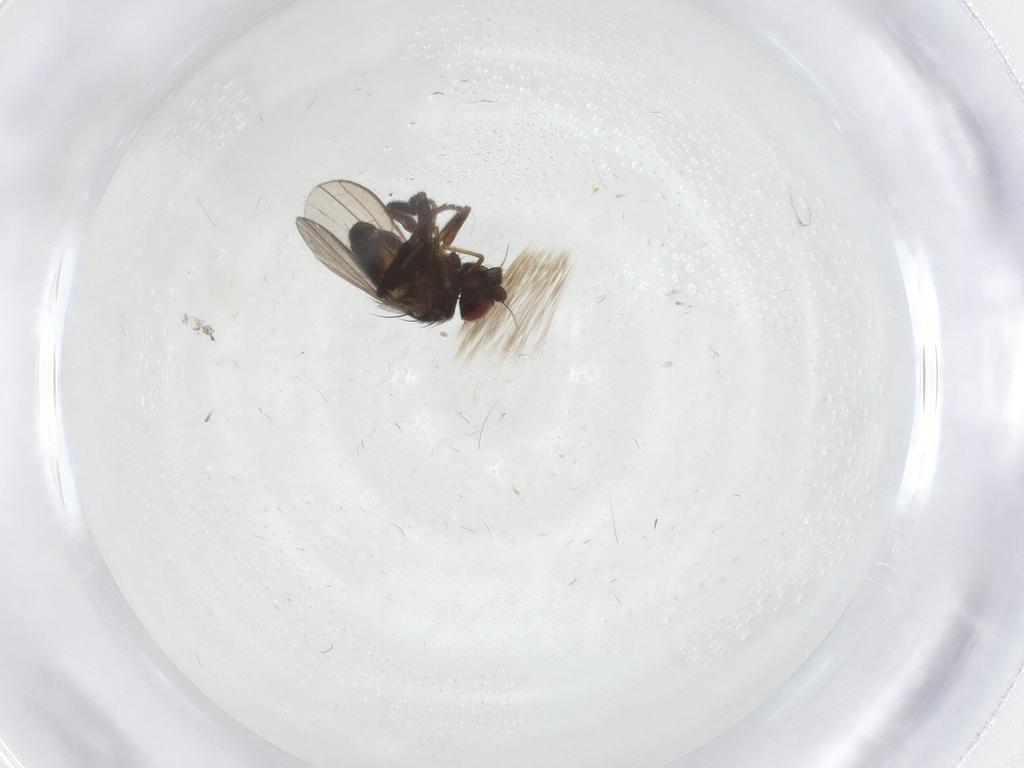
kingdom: Animalia
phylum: Arthropoda
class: Insecta
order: Diptera
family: Milichiidae
